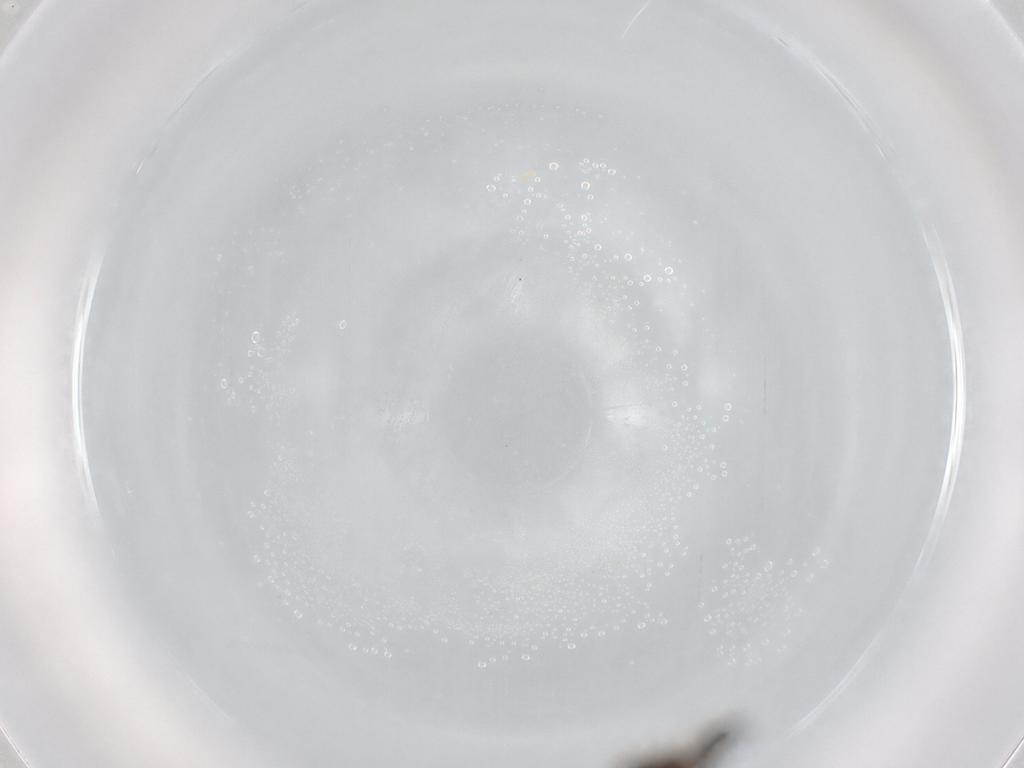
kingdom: Animalia
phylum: Arthropoda
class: Insecta
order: Diptera
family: Ceratopogonidae
